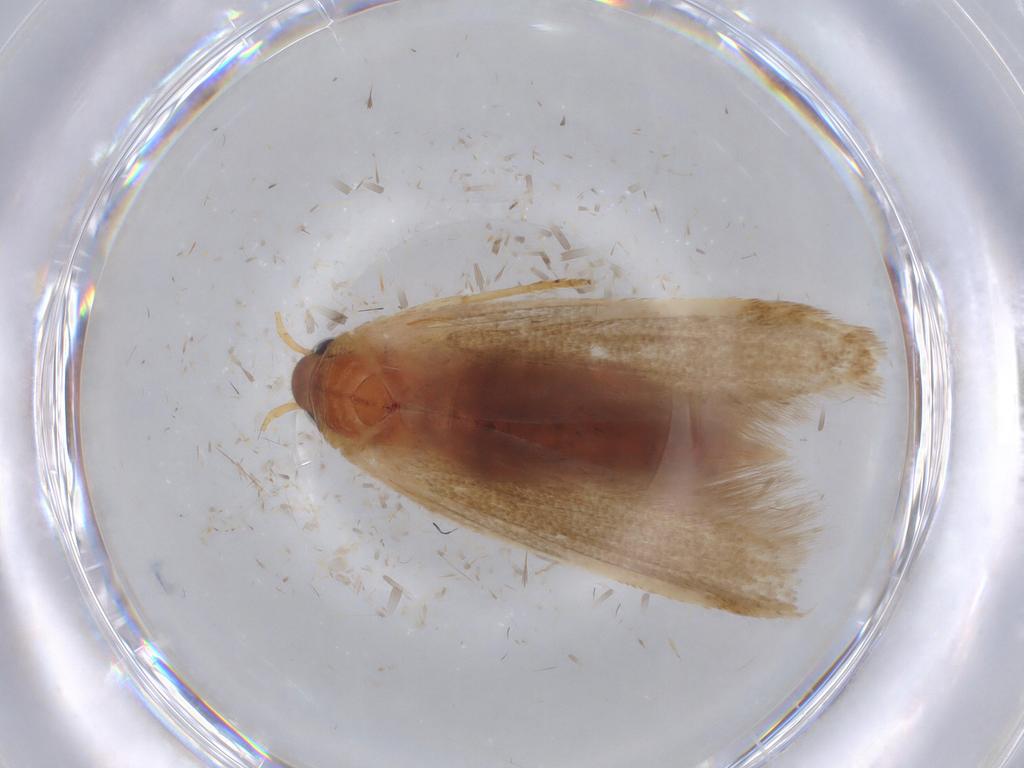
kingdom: Animalia
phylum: Arthropoda
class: Insecta
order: Lepidoptera
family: Blastobasidae
